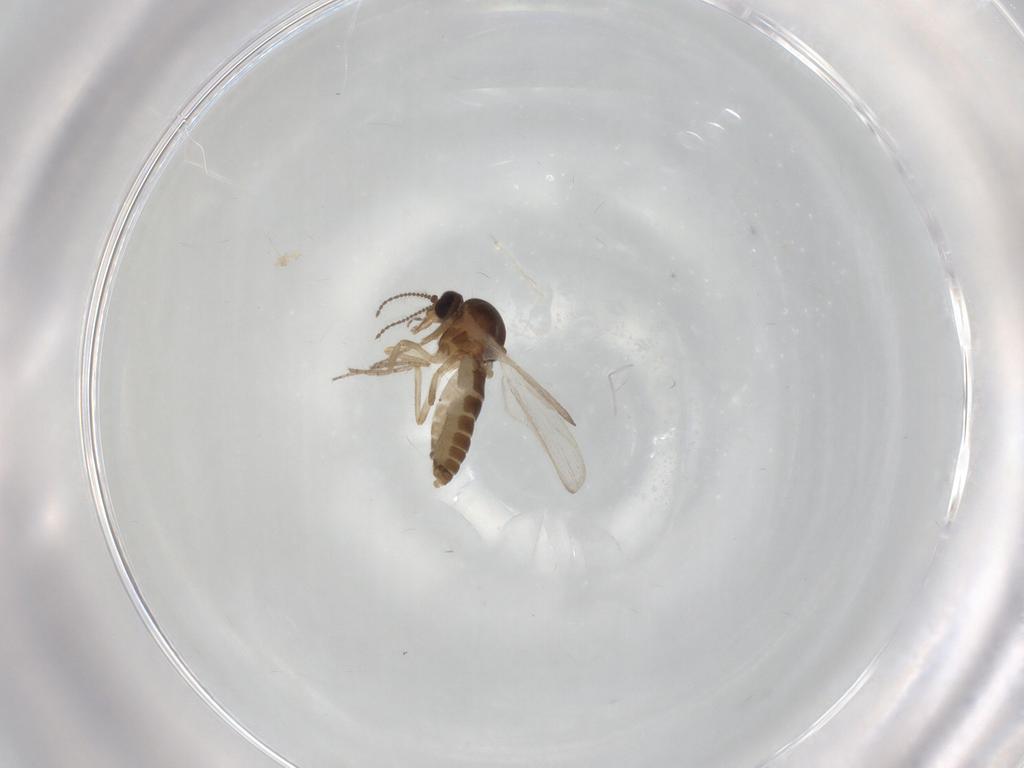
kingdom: Animalia
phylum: Arthropoda
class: Insecta
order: Diptera
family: Ceratopogonidae
